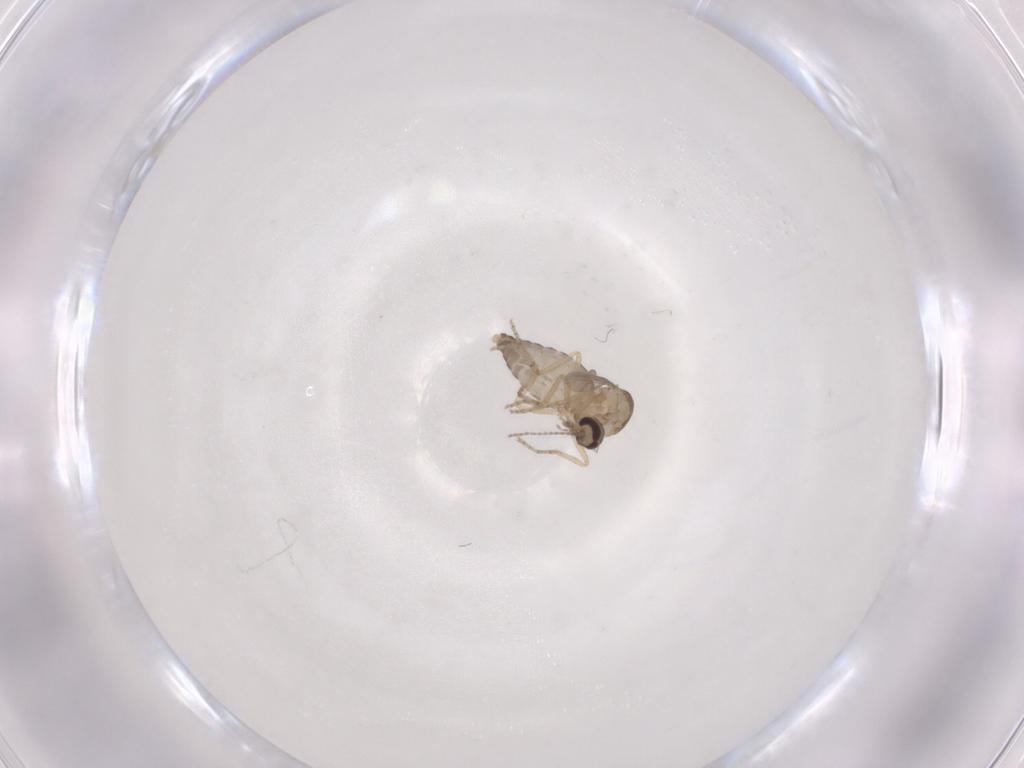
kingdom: Animalia
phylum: Arthropoda
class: Insecta
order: Diptera
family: Ceratopogonidae
